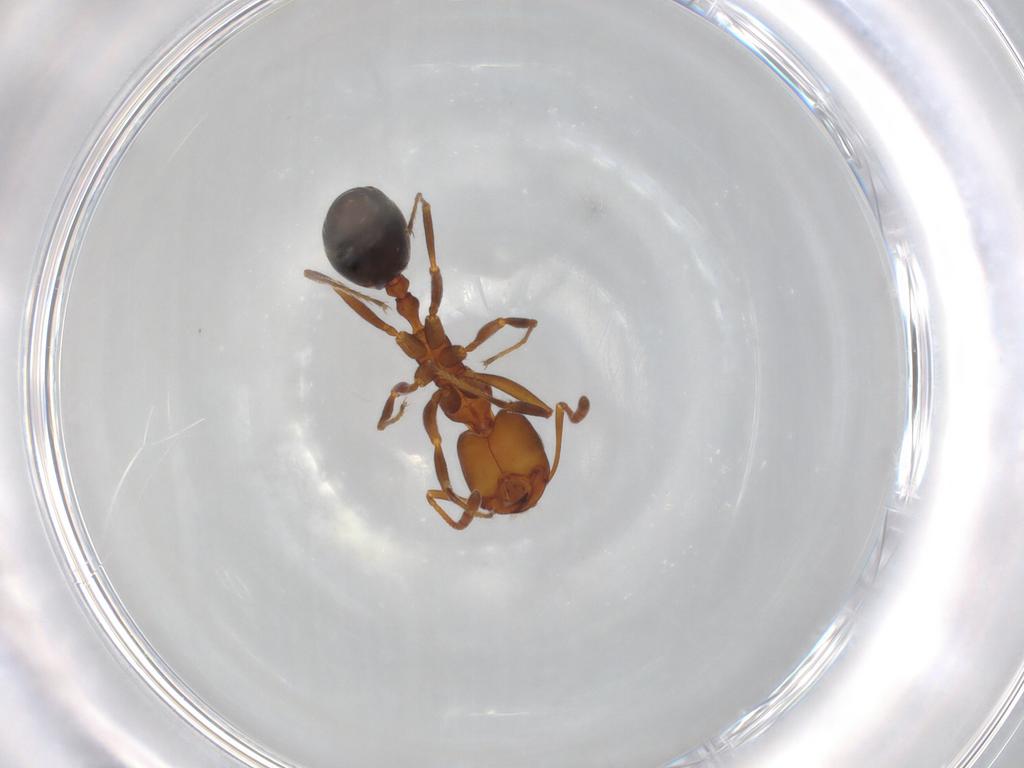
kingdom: Animalia
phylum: Arthropoda
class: Insecta
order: Hymenoptera
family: Formicidae
